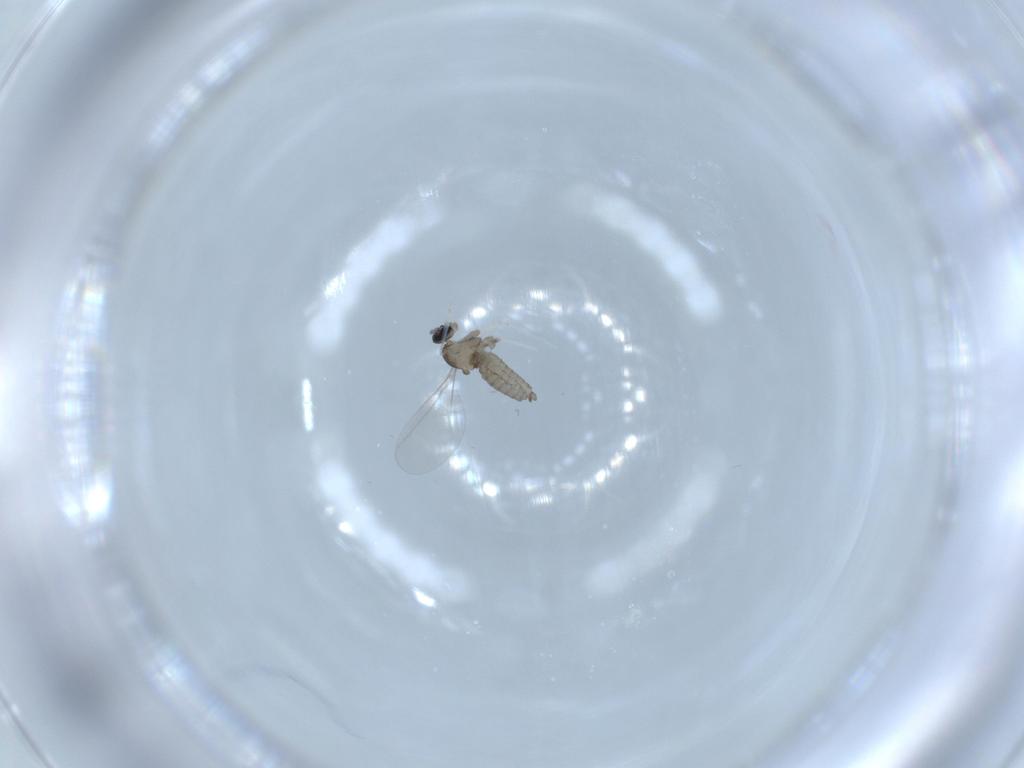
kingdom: Animalia
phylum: Arthropoda
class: Insecta
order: Diptera
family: Cecidomyiidae
